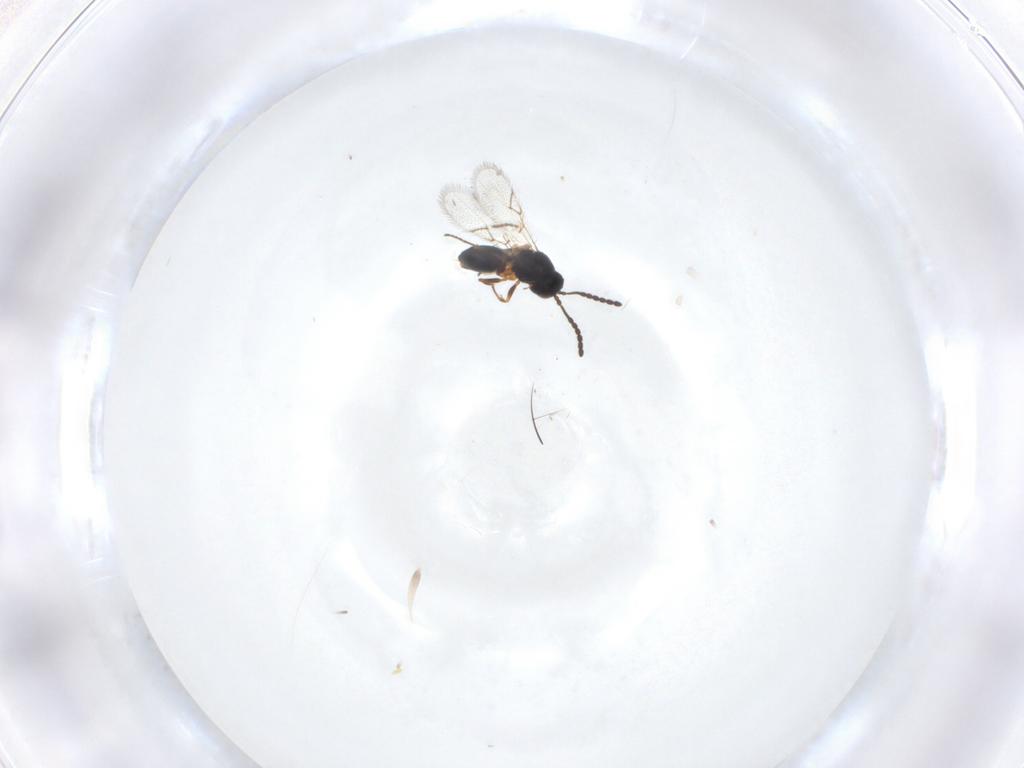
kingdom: Animalia
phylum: Arthropoda
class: Insecta
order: Hymenoptera
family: Figitidae
